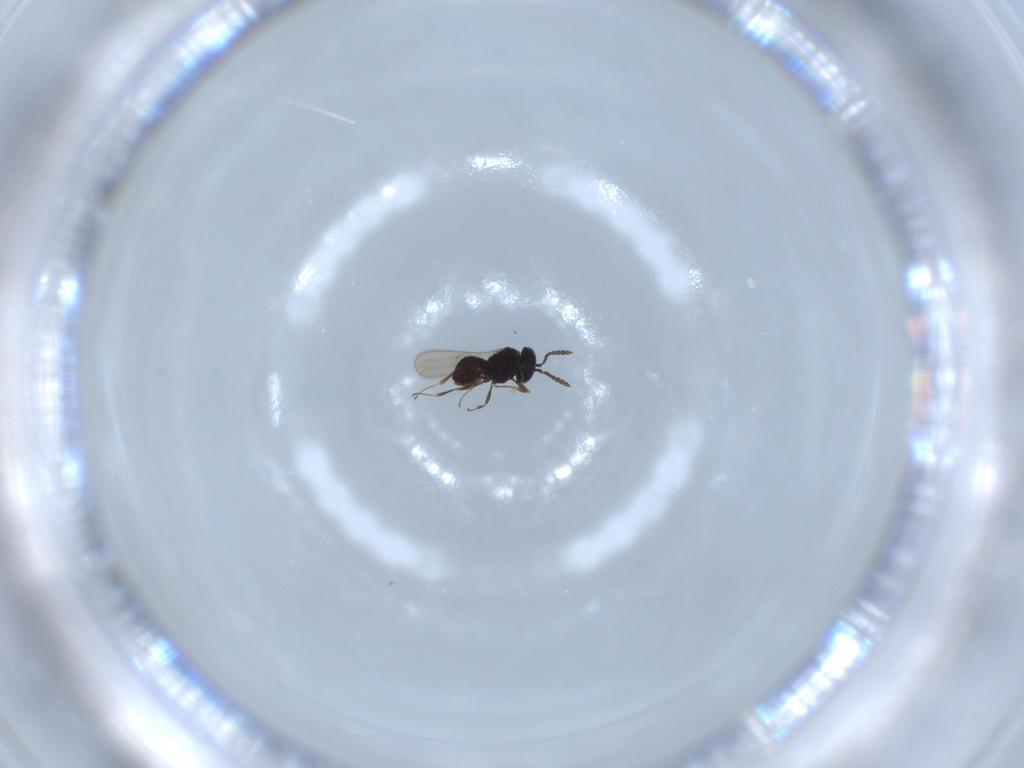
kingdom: Animalia
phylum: Arthropoda
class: Insecta
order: Hymenoptera
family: Scelionidae
